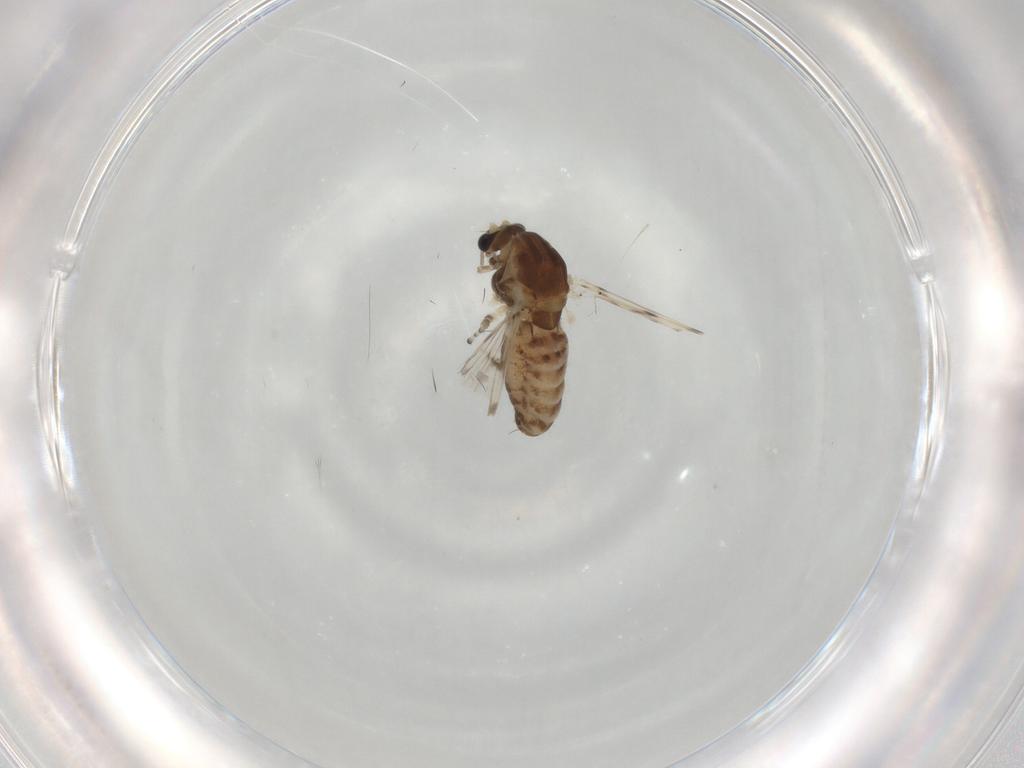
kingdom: Animalia
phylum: Arthropoda
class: Insecta
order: Diptera
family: Chironomidae
